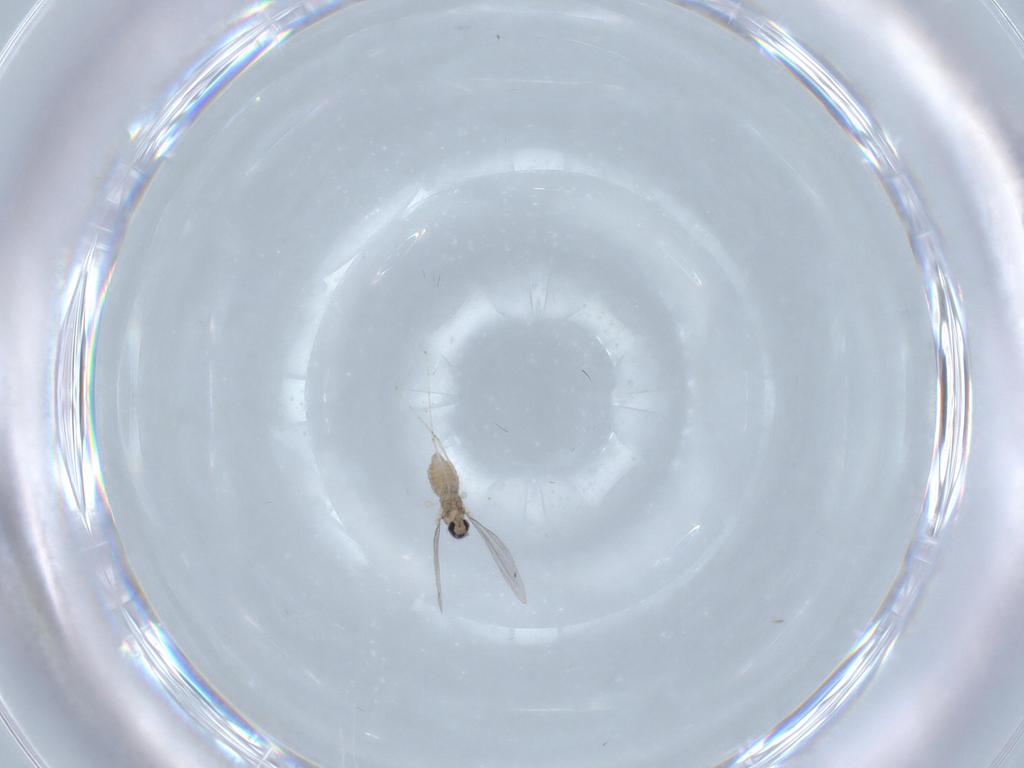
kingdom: Animalia
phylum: Arthropoda
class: Insecta
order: Diptera
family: Cecidomyiidae
